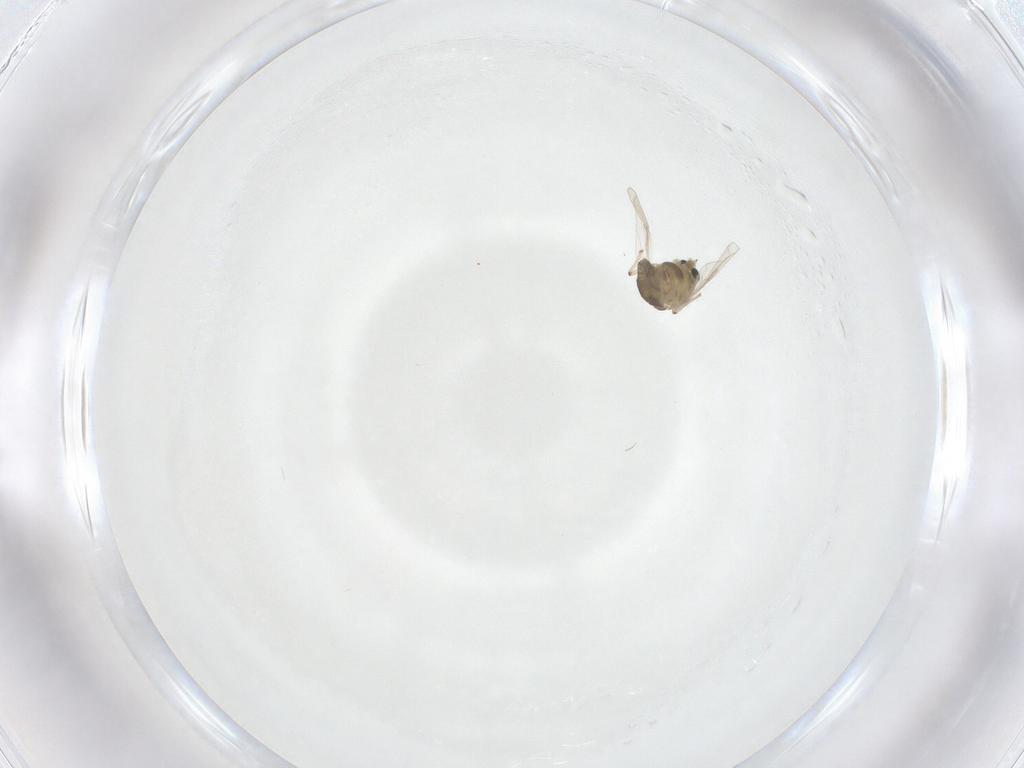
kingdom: Animalia
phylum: Arthropoda
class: Insecta
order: Diptera
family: Chironomidae
